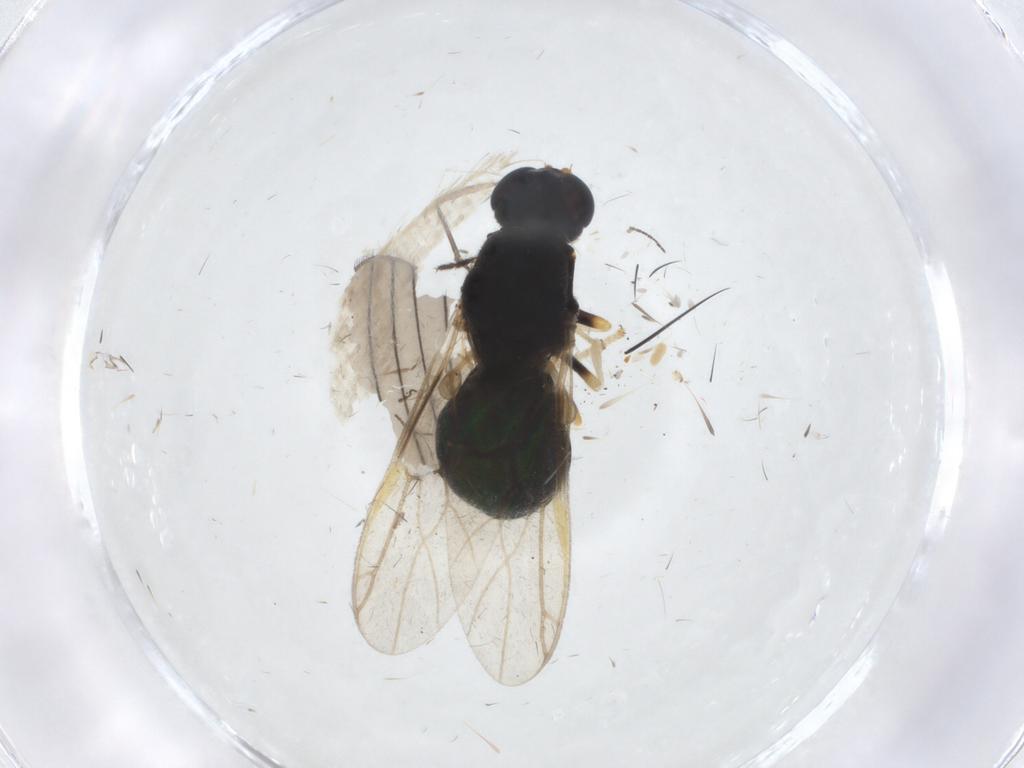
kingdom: Animalia
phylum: Arthropoda
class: Insecta
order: Diptera
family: Stratiomyidae
